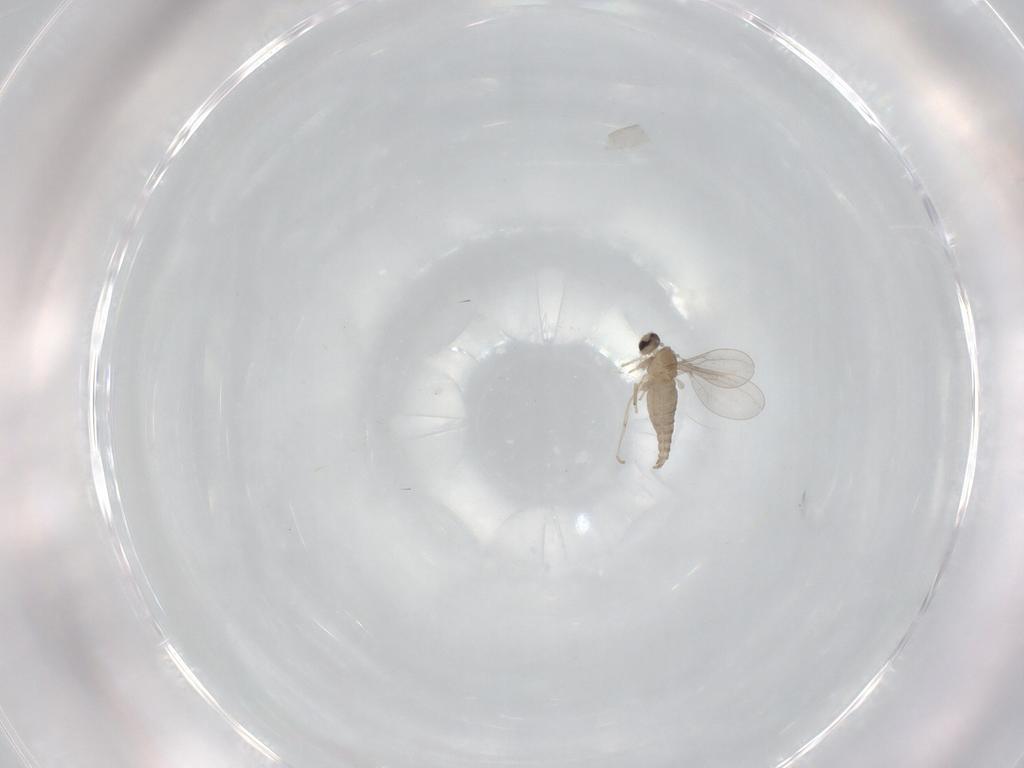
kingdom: Animalia
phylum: Arthropoda
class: Insecta
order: Diptera
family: Cecidomyiidae
